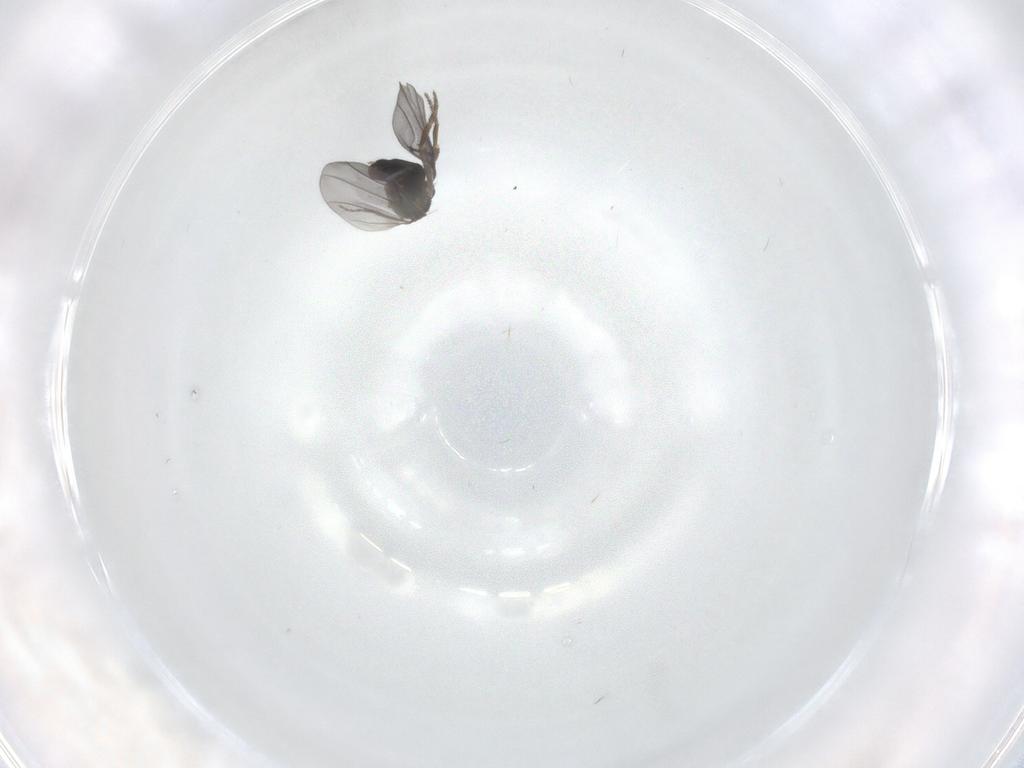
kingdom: Animalia
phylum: Arthropoda
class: Insecta
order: Diptera
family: Phoridae
